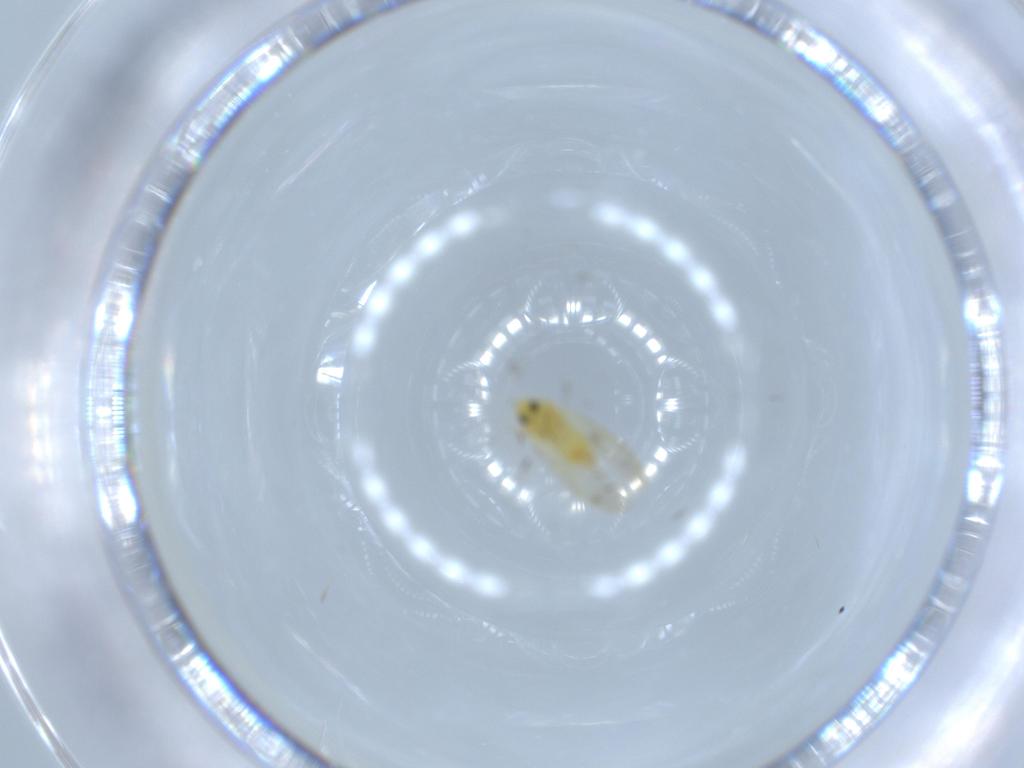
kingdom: Animalia
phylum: Arthropoda
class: Insecta
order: Hemiptera
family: Aleyrodidae
